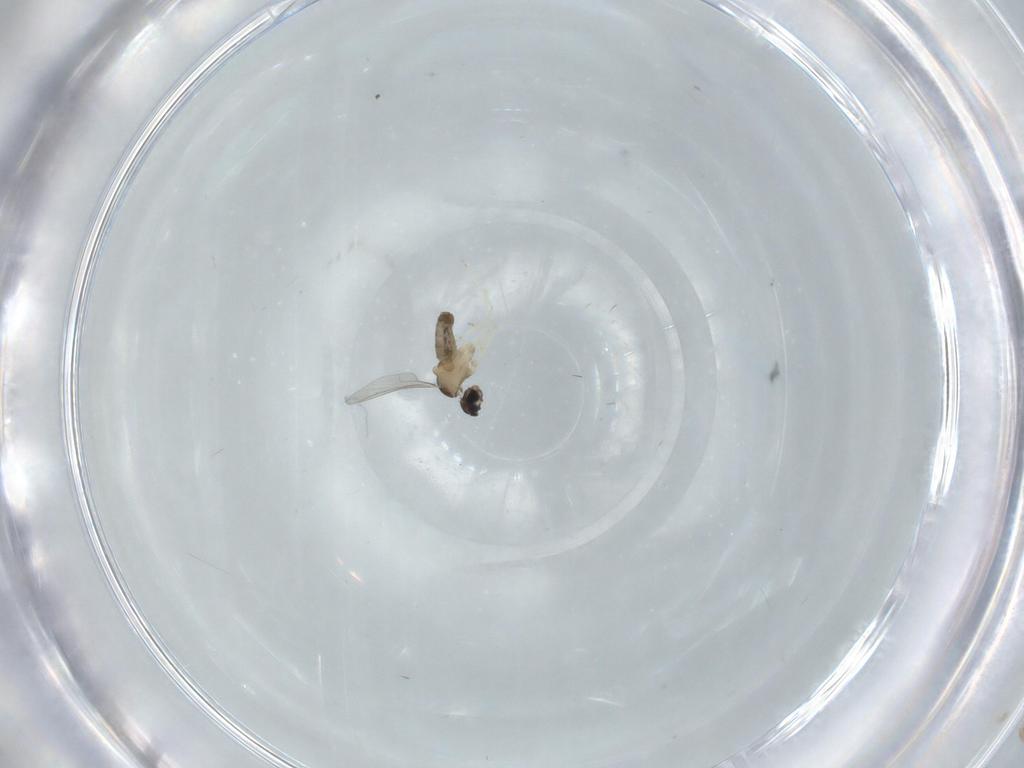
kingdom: Animalia
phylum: Arthropoda
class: Insecta
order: Diptera
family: Cecidomyiidae
